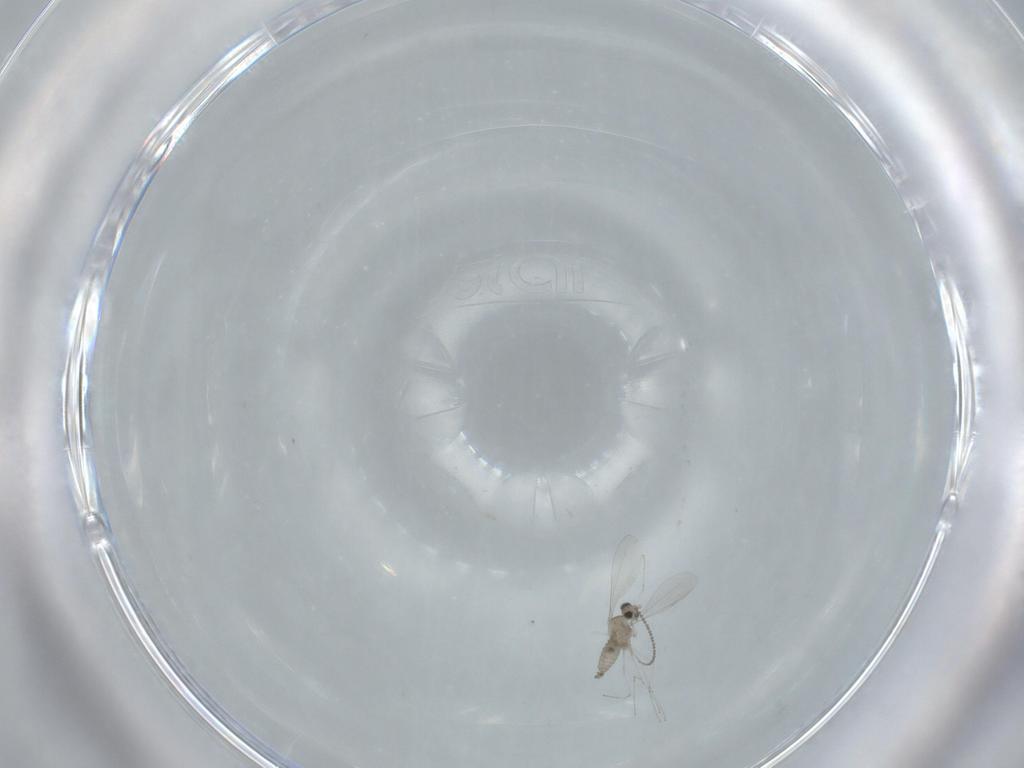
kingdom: Animalia
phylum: Arthropoda
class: Insecta
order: Diptera
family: Cecidomyiidae
